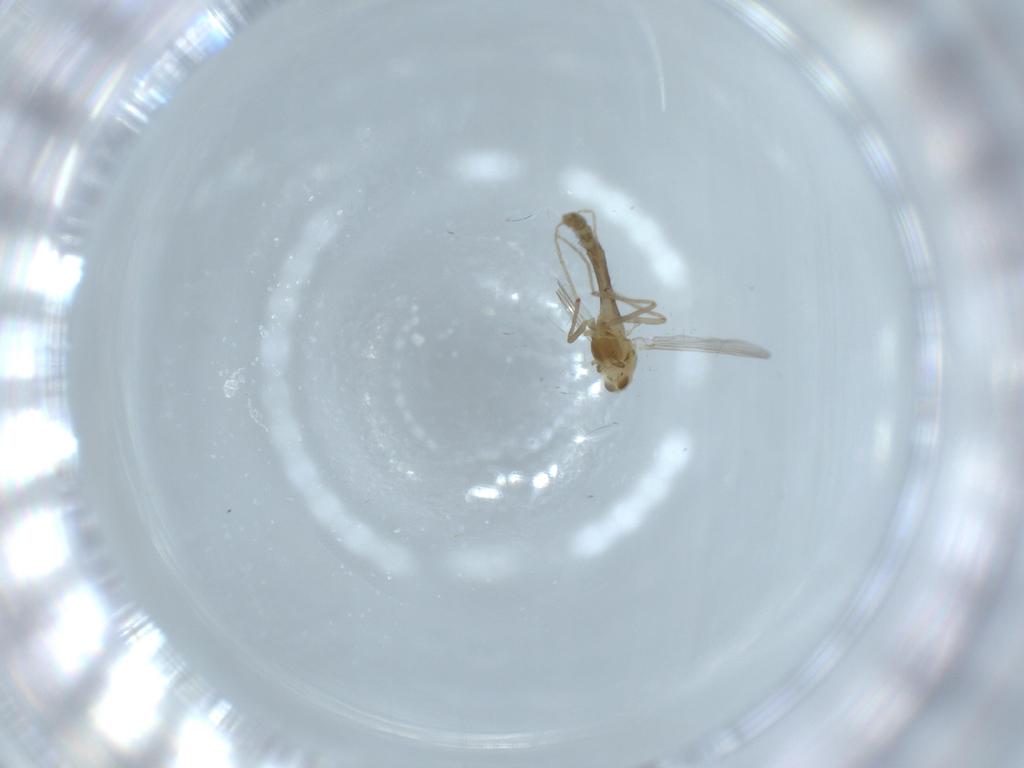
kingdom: Animalia
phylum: Arthropoda
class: Insecta
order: Diptera
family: Chironomidae
